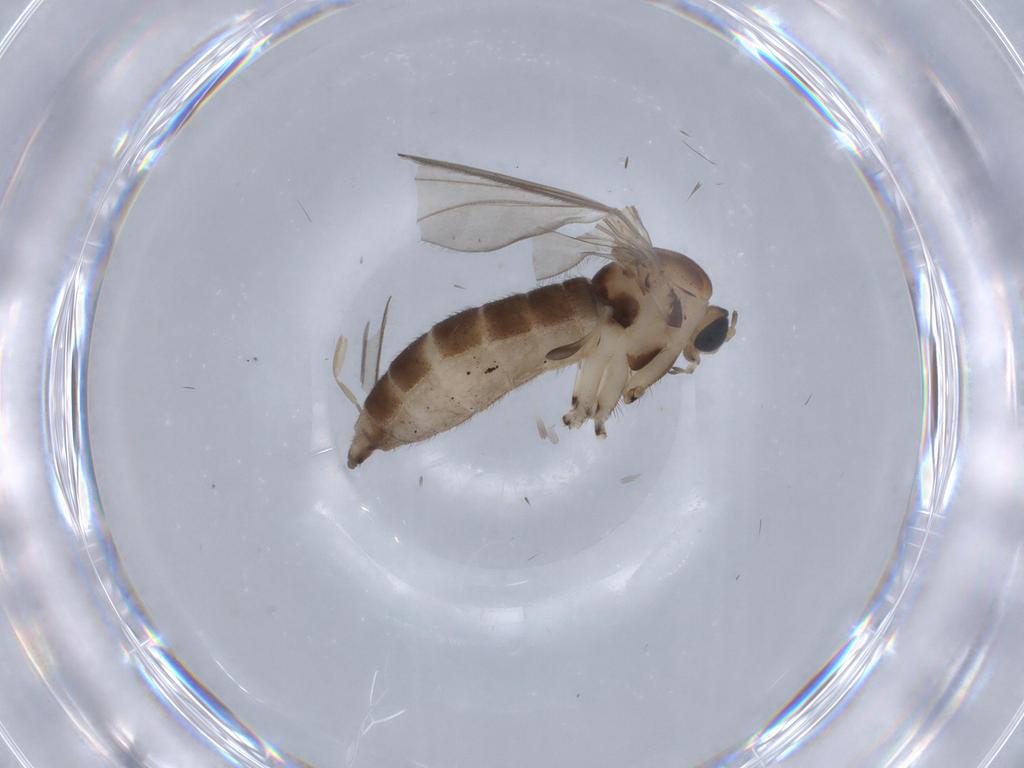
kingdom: Animalia
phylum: Arthropoda
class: Insecta
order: Diptera
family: Sciaridae
